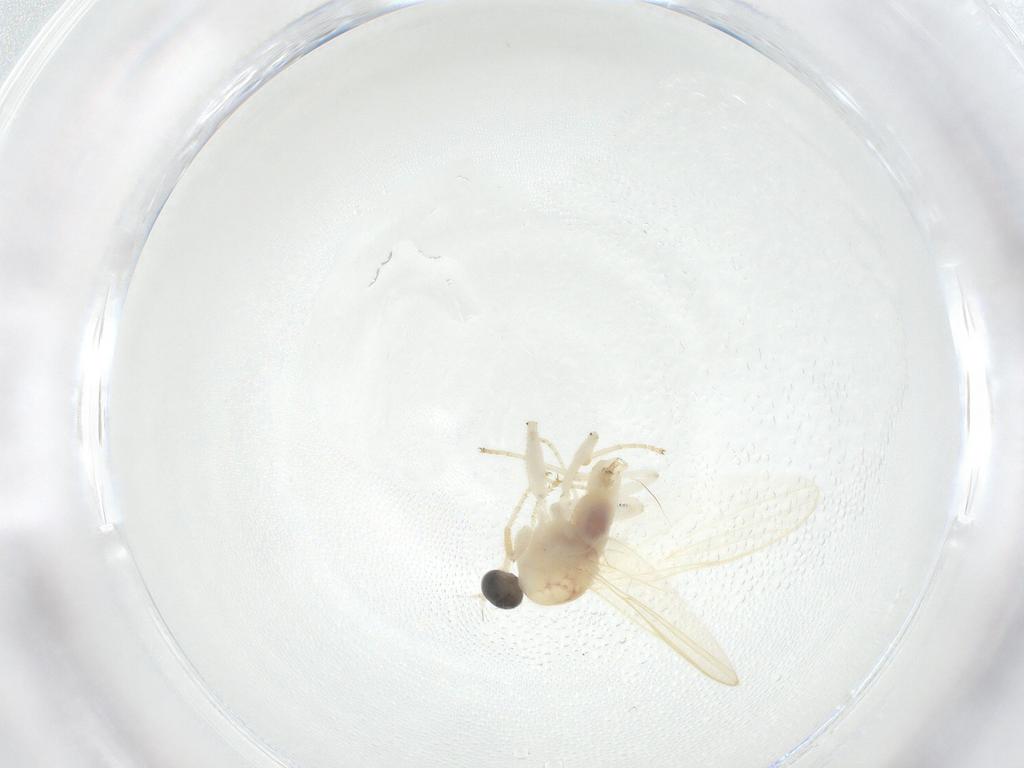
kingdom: Animalia
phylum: Arthropoda
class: Insecta
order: Diptera
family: Hybotidae
